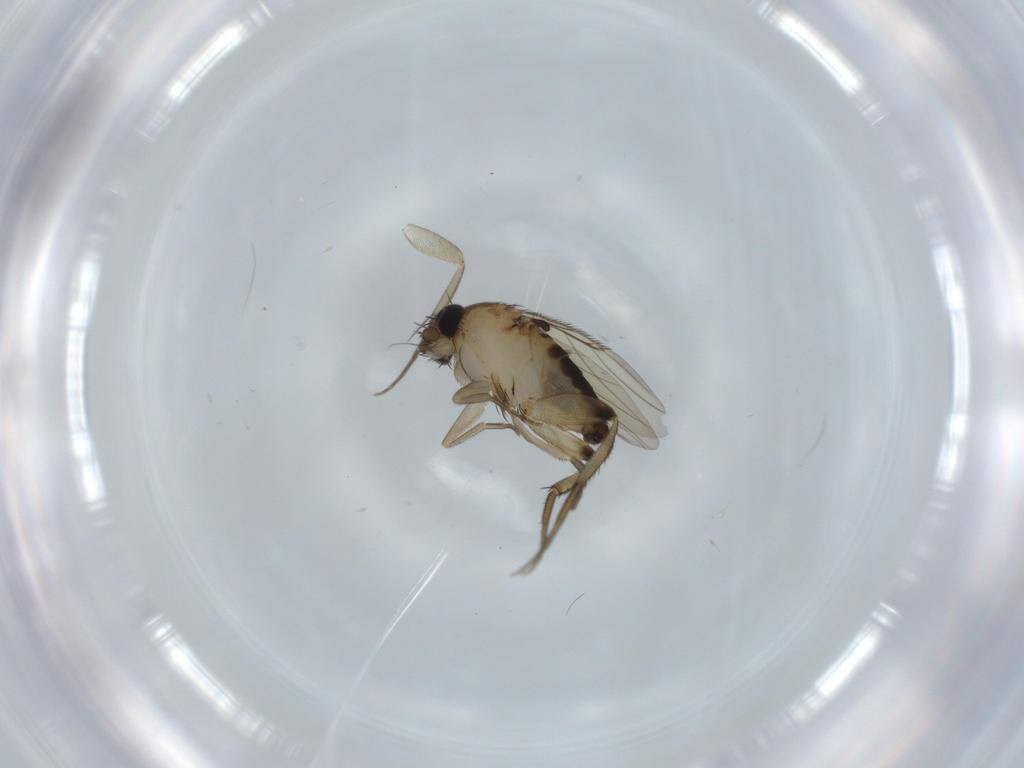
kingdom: Animalia
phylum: Arthropoda
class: Insecta
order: Diptera
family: Phoridae
